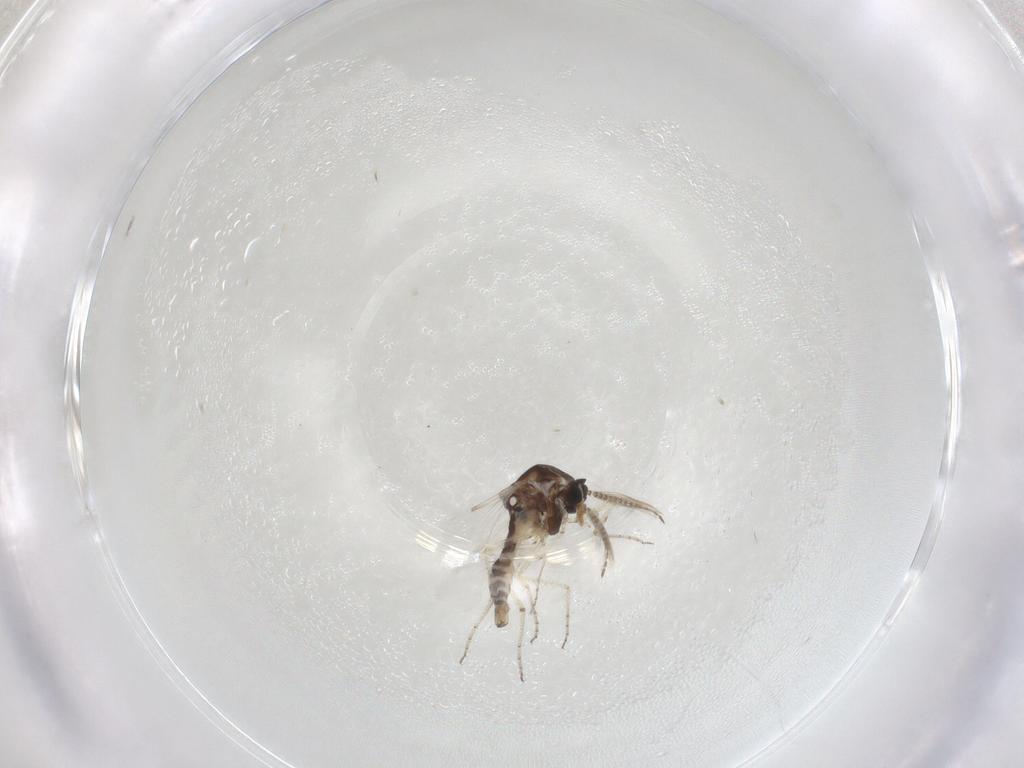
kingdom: Animalia
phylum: Arthropoda
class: Insecta
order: Diptera
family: Ceratopogonidae
